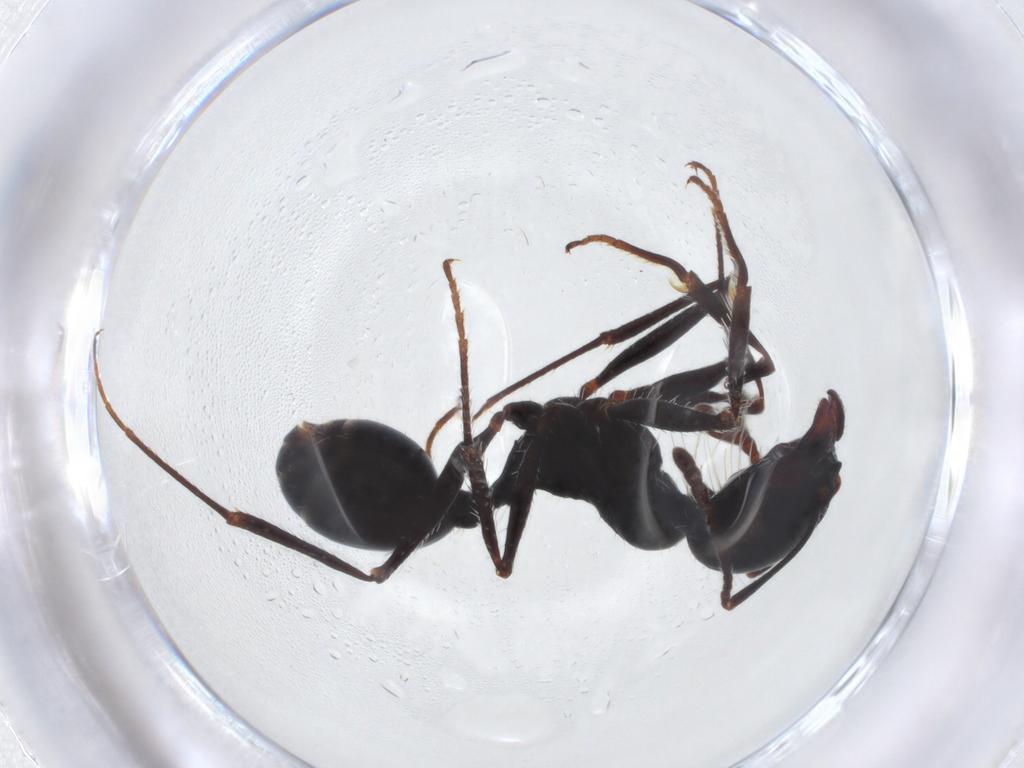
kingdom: Animalia
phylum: Arthropoda
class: Insecta
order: Hymenoptera
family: Formicidae
